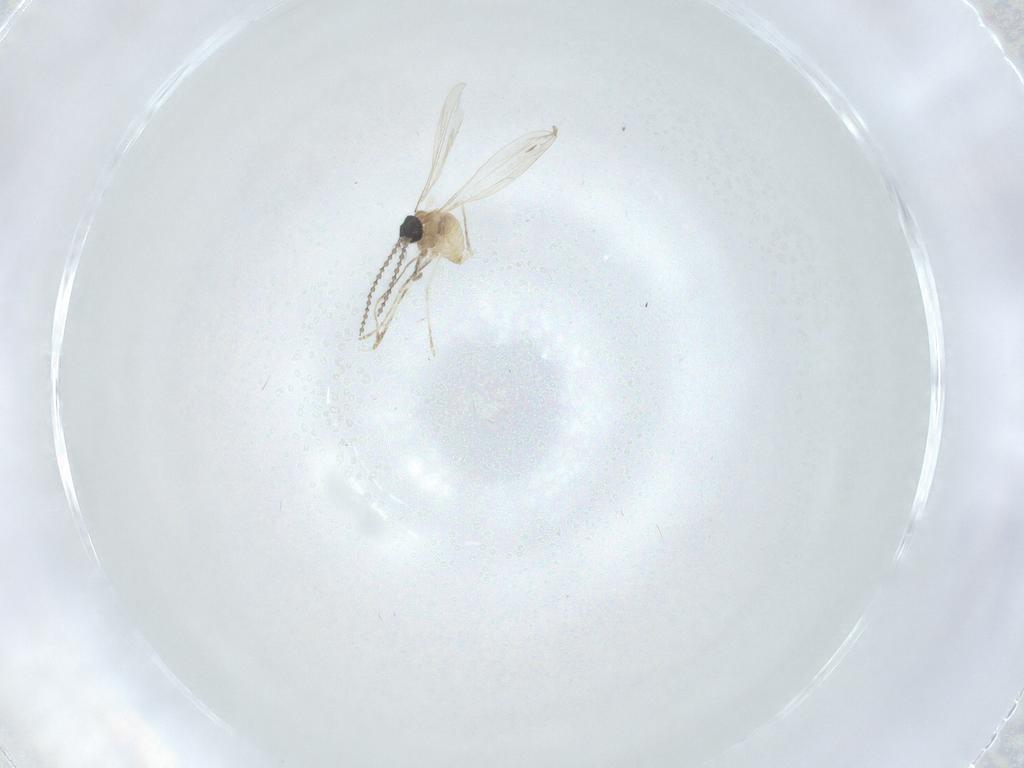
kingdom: Animalia
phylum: Arthropoda
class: Insecta
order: Diptera
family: Cecidomyiidae
